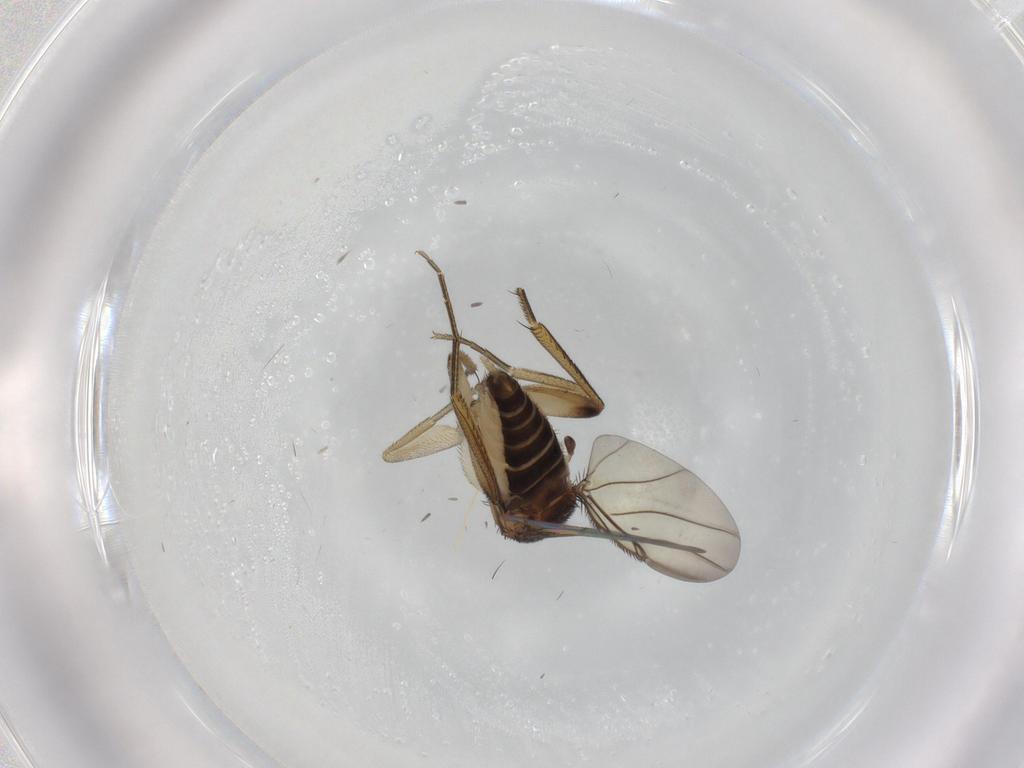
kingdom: Animalia
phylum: Arthropoda
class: Insecta
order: Diptera
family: Phoridae
